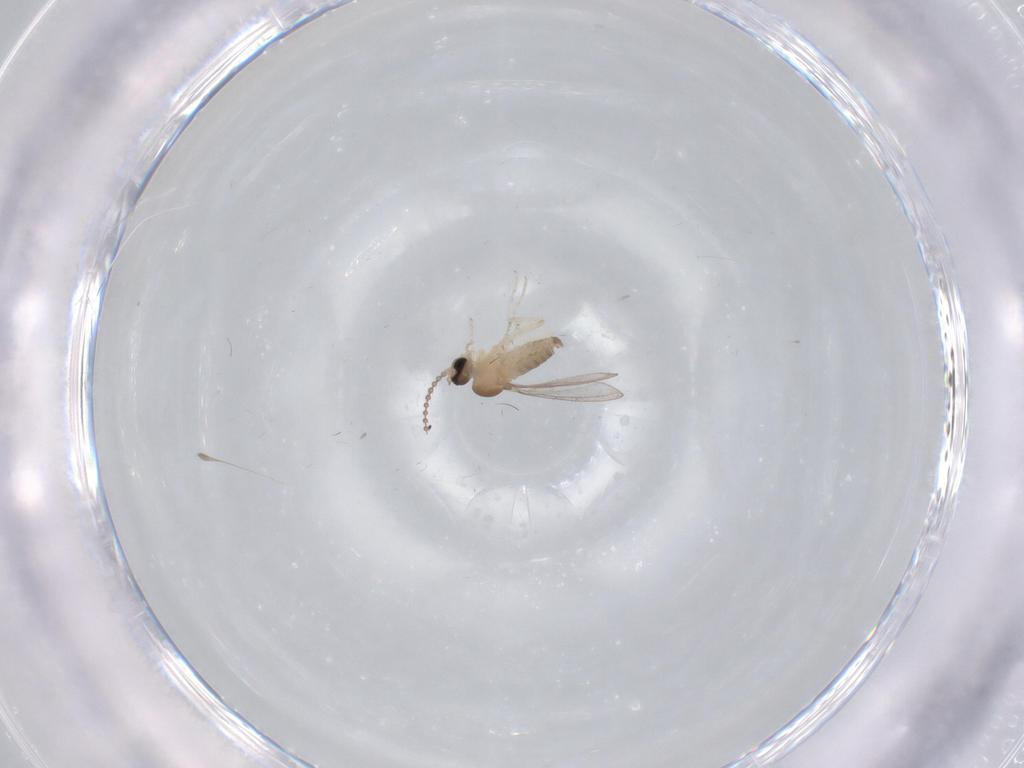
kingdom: Animalia
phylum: Arthropoda
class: Insecta
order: Diptera
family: Cecidomyiidae
